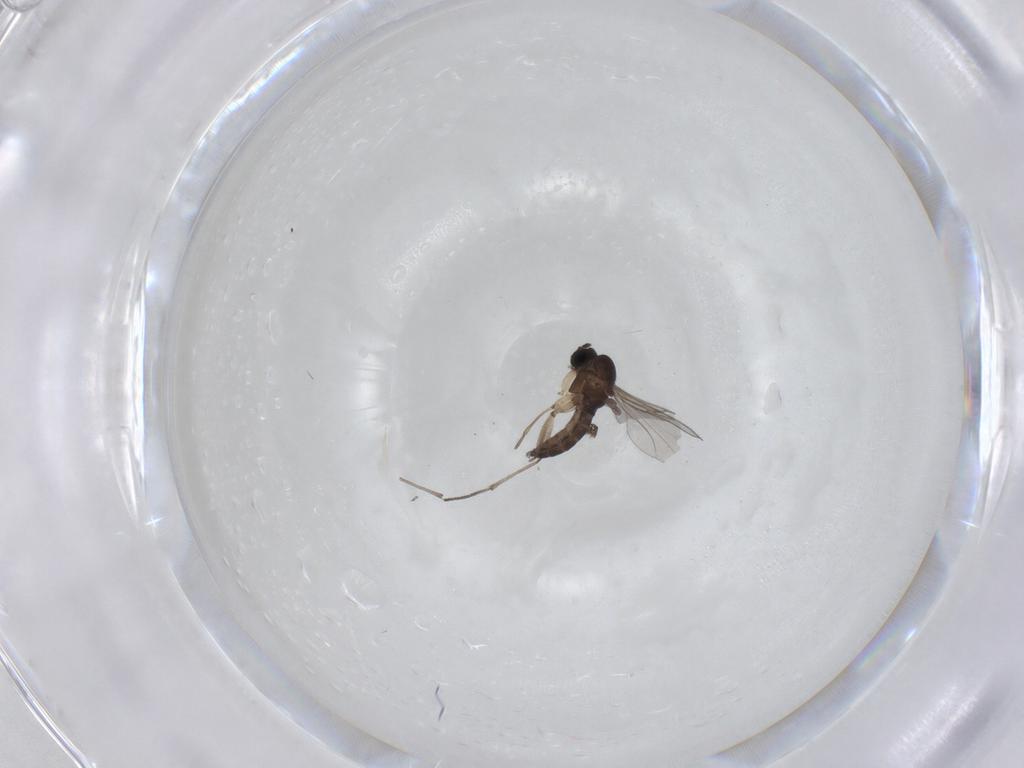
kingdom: Animalia
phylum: Arthropoda
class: Insecta
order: Diptera
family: Sciaridae
